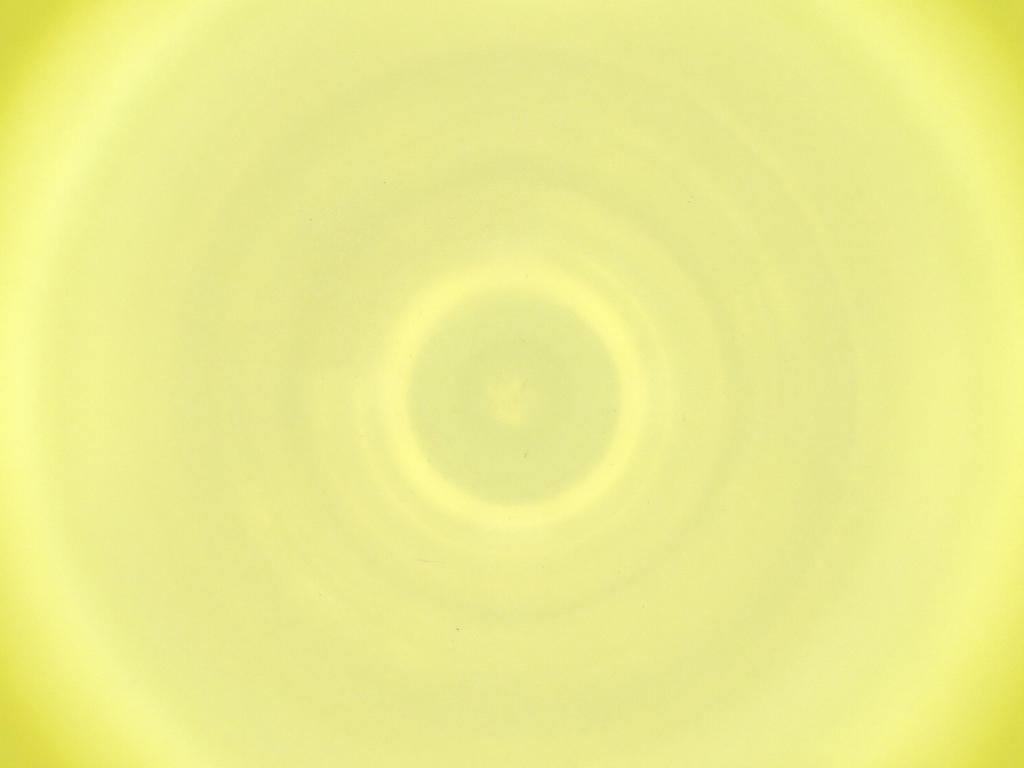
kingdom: Animalia
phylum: Arthropoda
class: Insecta
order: Diptera
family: Cecidomyiidae
